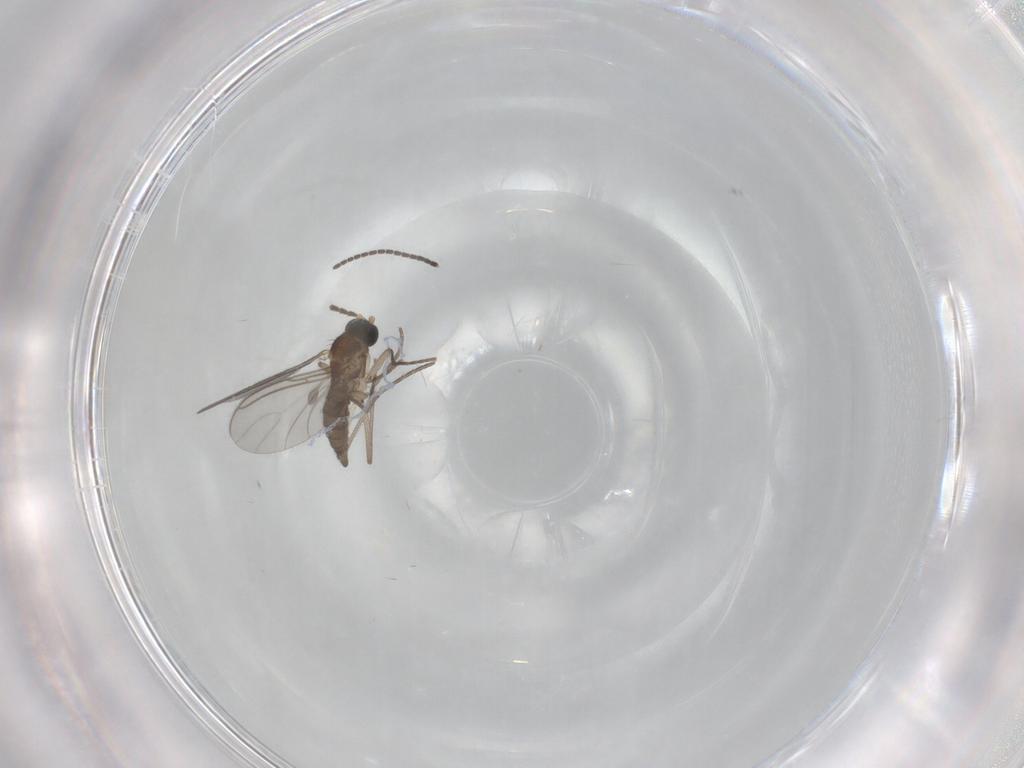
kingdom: Animalia
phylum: Arthropoda
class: Insecta
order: Diptera
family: Sciaridae
